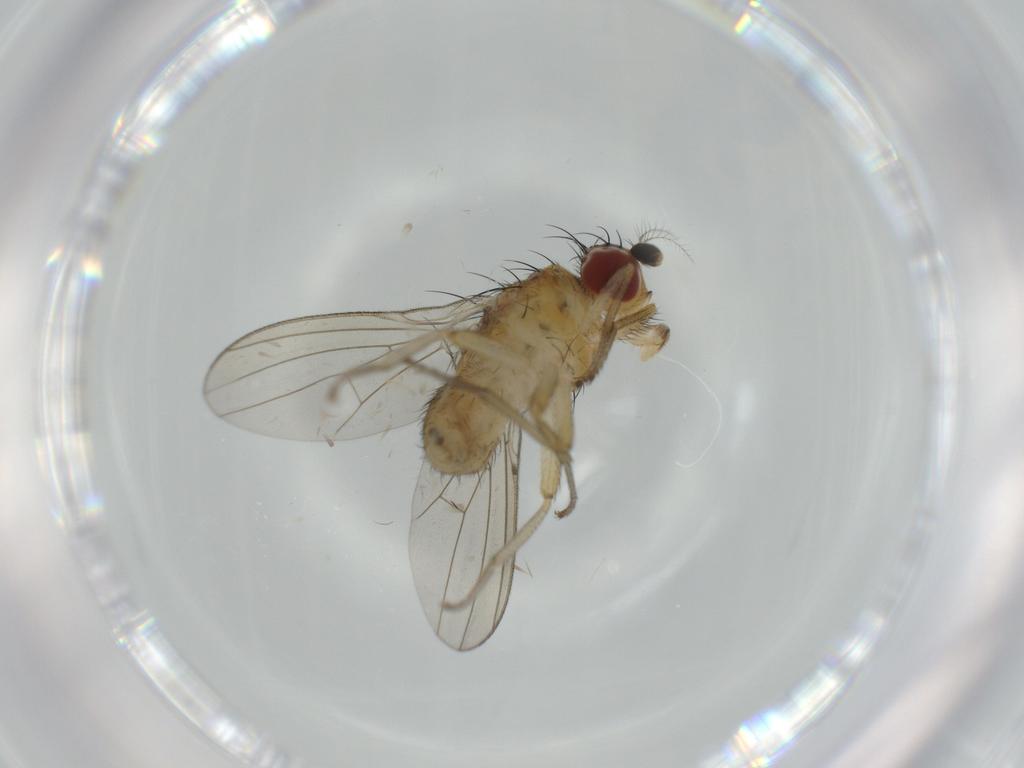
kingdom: Animalia
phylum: Arthropoda
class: Insecta
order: Diptera
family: Lauxaniidae
